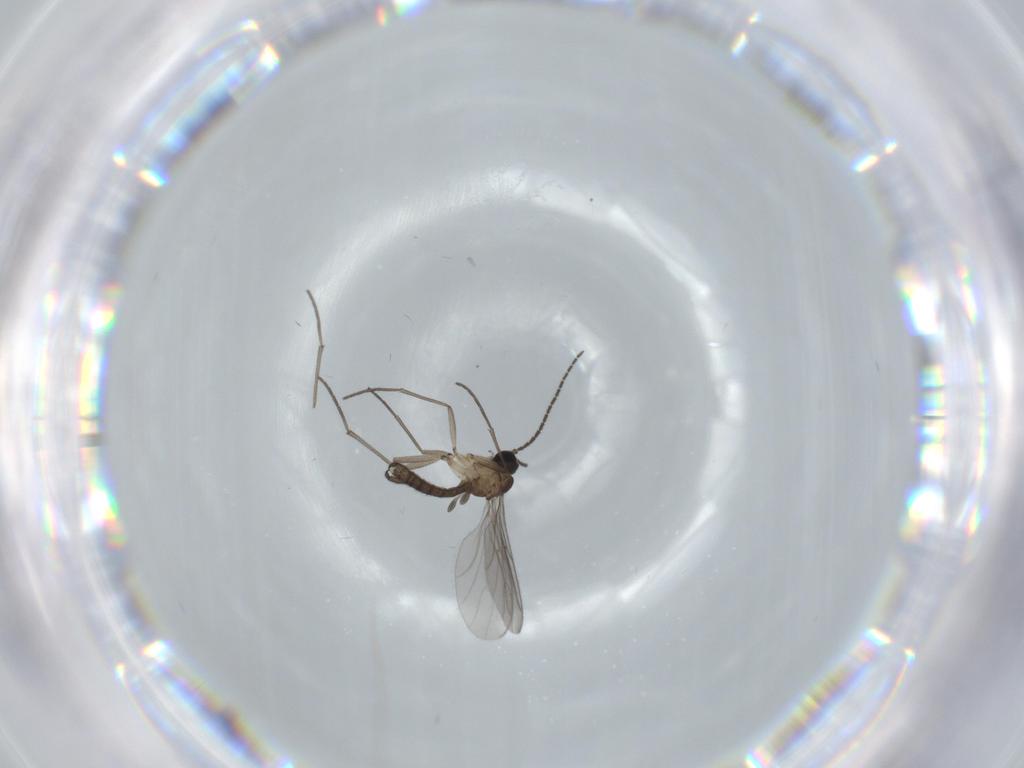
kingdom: Animalia
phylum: Arthropoda
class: Insecta
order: Diptera
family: Sciaridae
